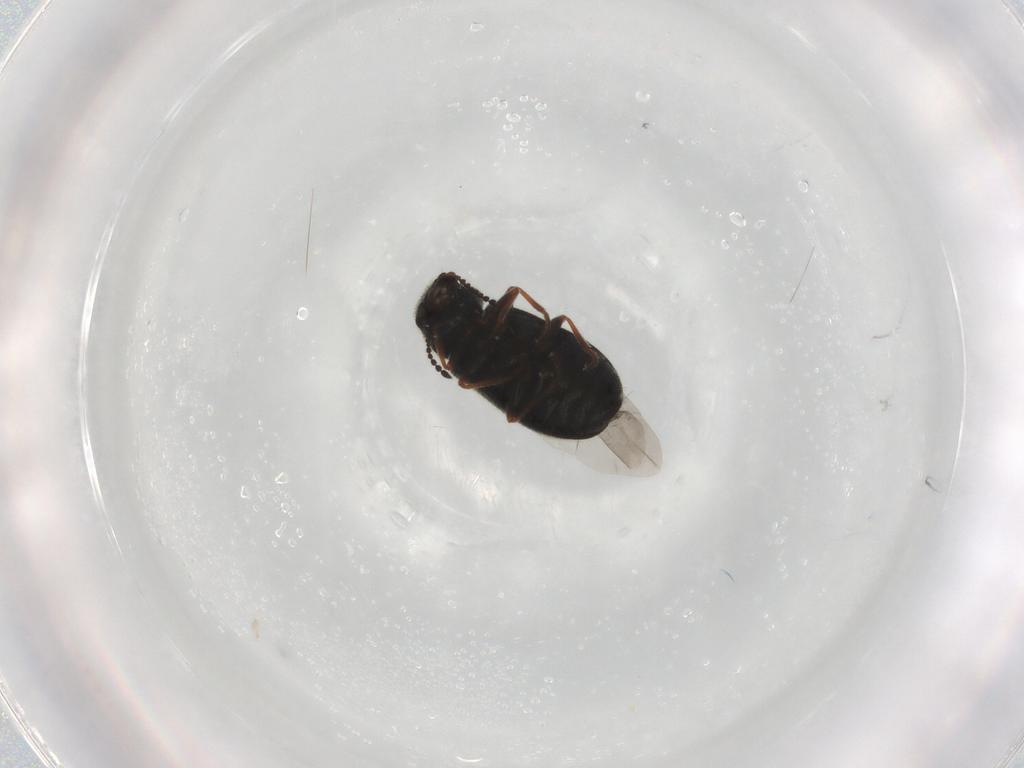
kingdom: Animalia
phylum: Arthropoda
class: Insecta
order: Coleoptera
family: Melyridae
